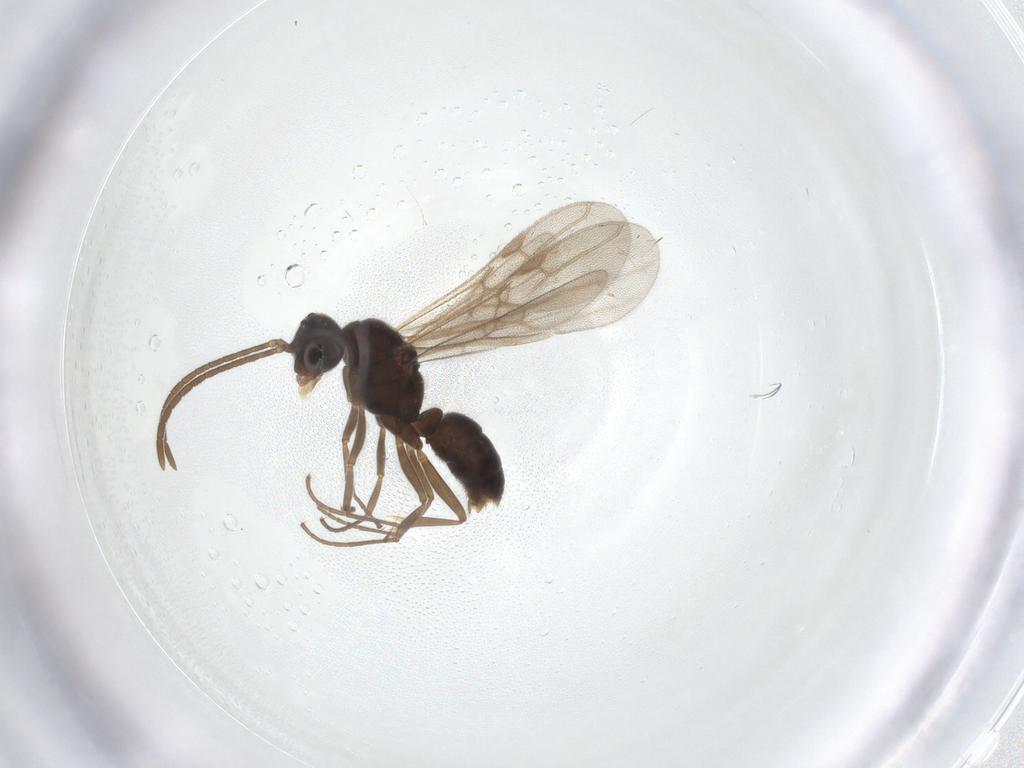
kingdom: Animalia
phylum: Arthropoda
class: Insecta
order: Hymenoptera
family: Formicidae
